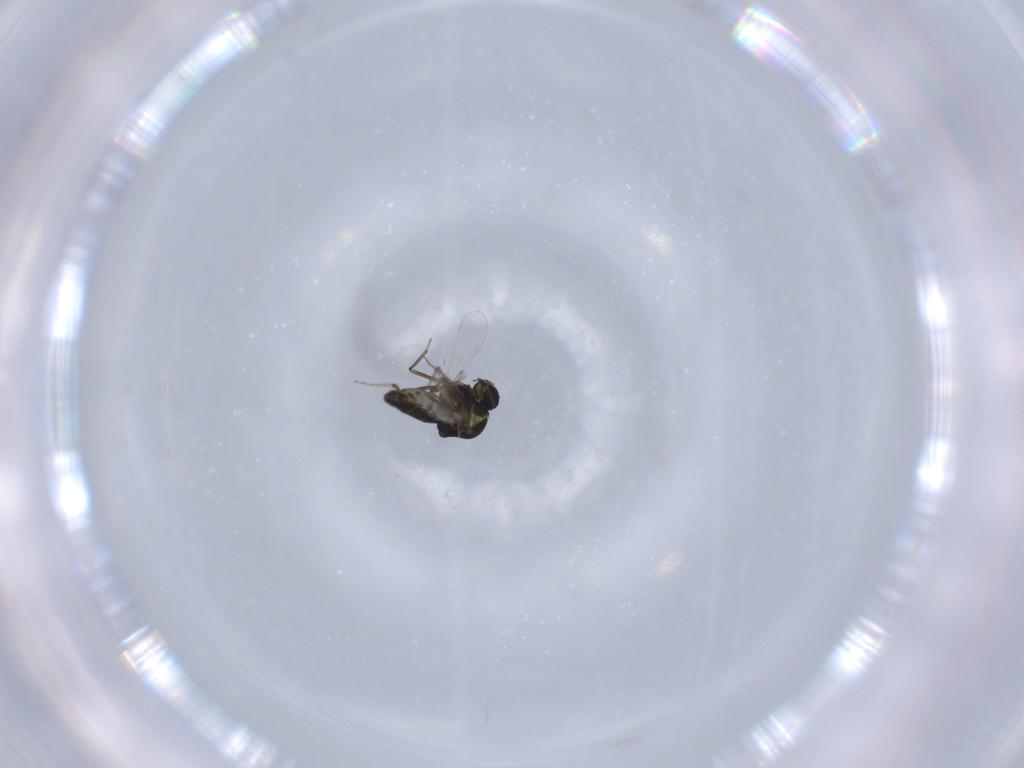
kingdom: Animalia
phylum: Arthropoda
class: Insecta
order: Diptera
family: Ceratopogonidae
